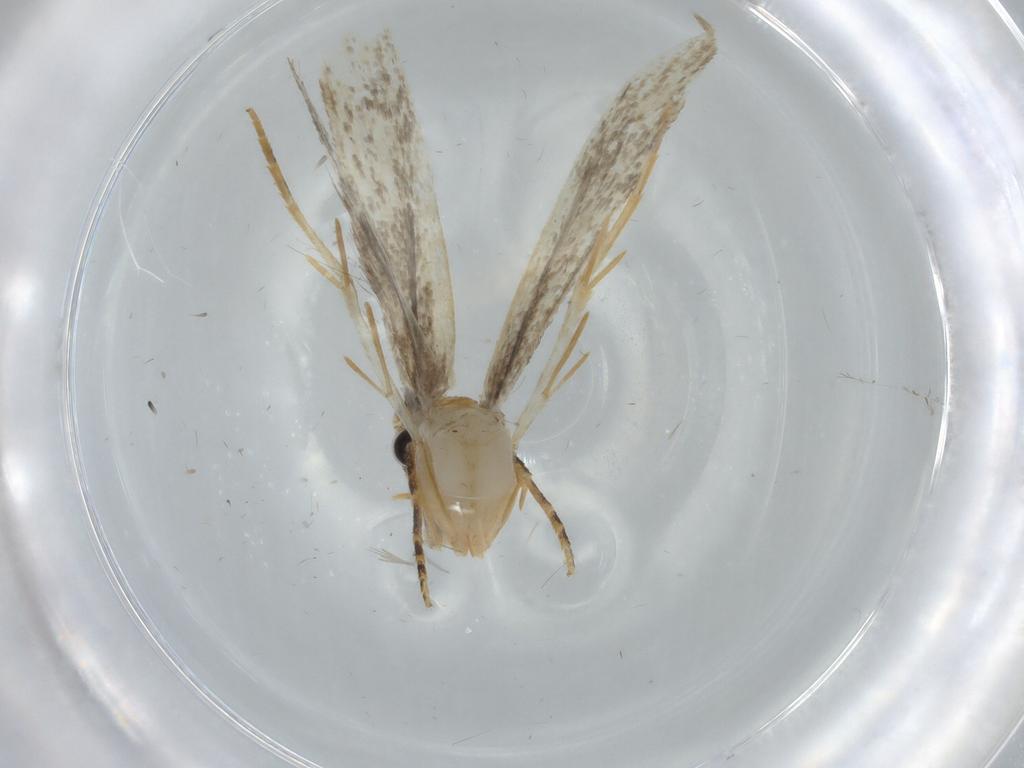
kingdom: Animalia
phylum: Arthropoda
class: Insecta
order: Lepidoptera
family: Tineidae
